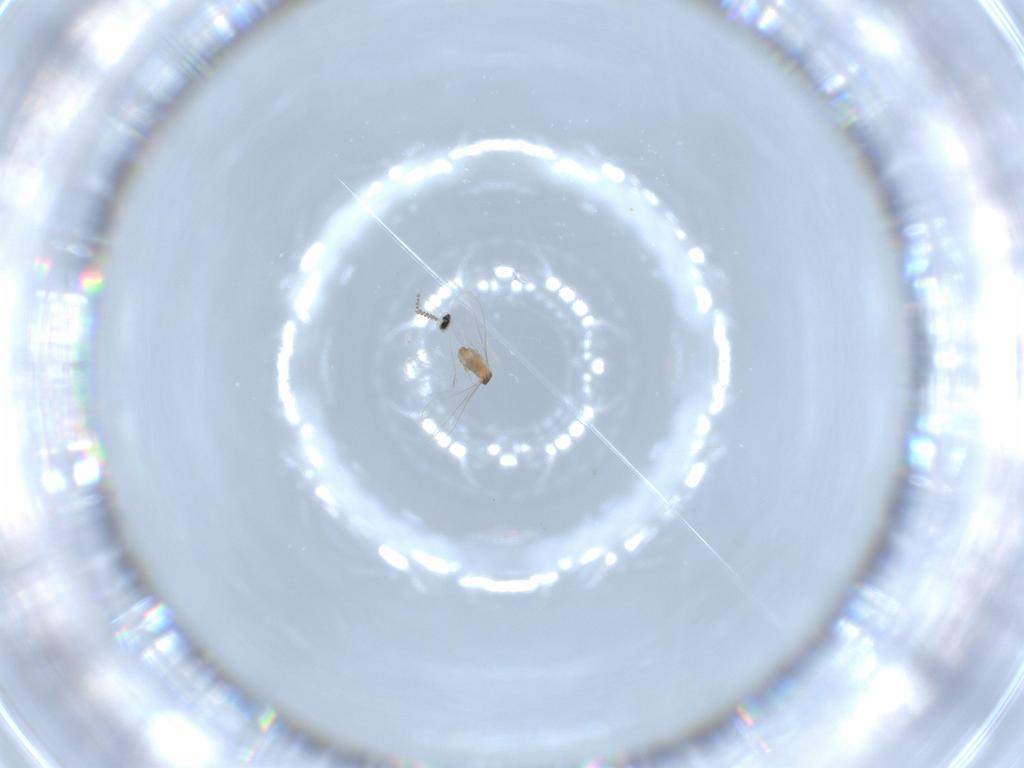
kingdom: Animalia
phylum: Arthropoda
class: Insecta
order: Diptera
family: Cecidomyiidae
